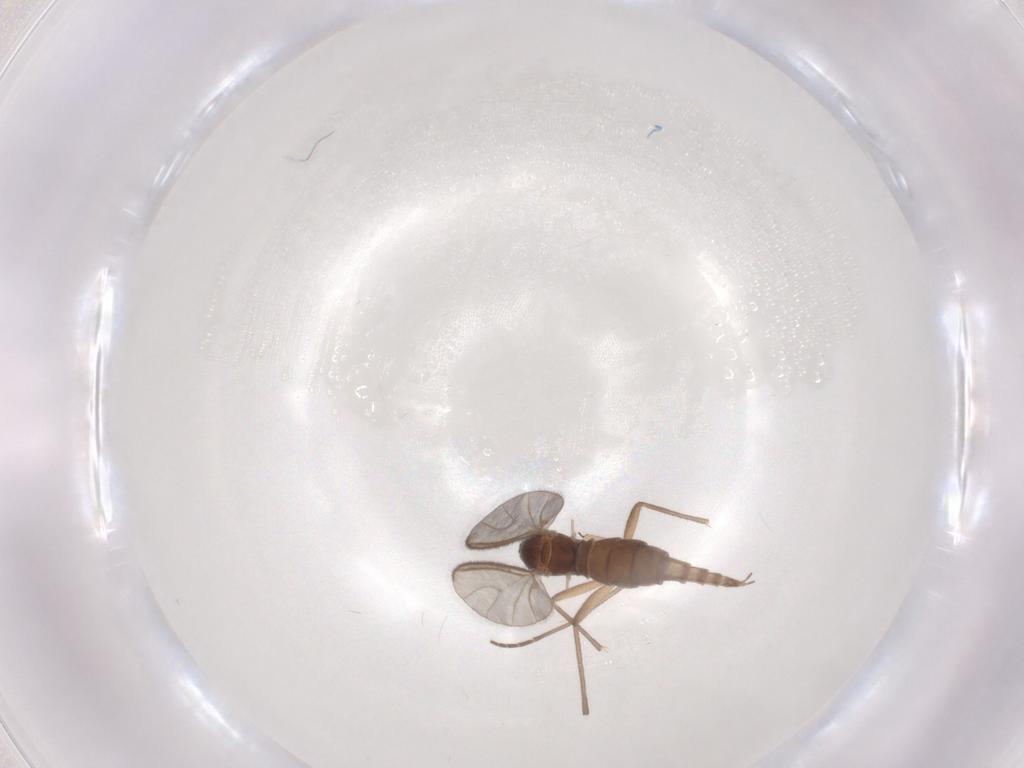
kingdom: Animalia
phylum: Arthropoda
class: Insecta
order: Diptera
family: Sciaridae
